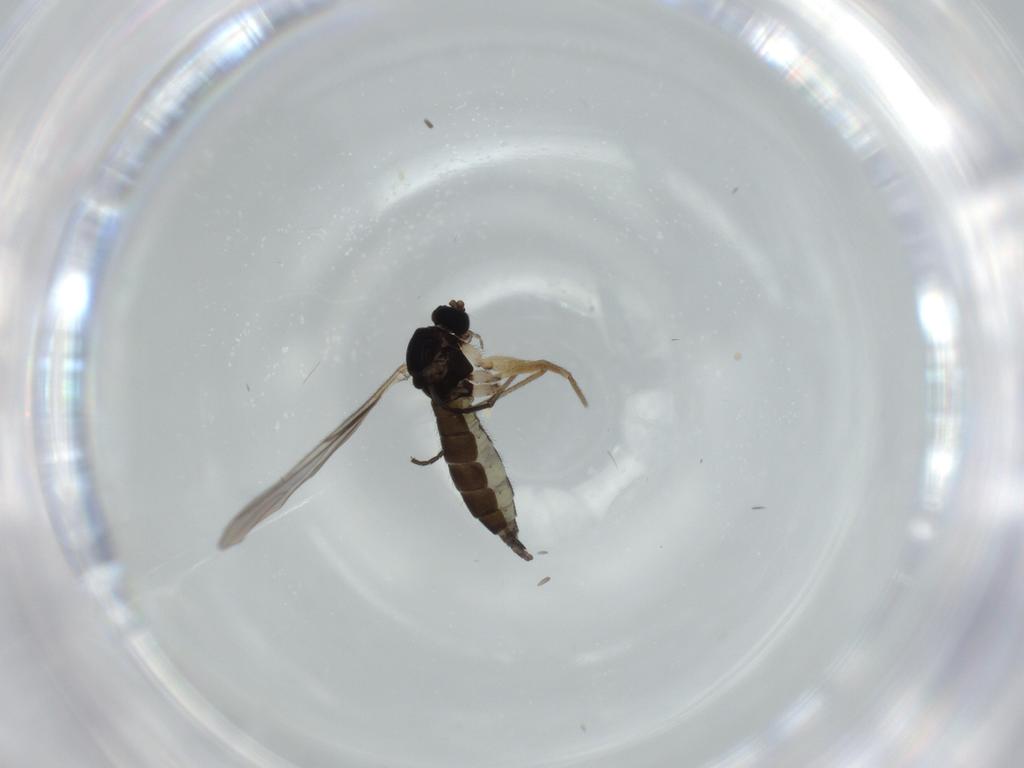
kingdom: Animalia
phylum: Arthropoda
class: Insecta
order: Diptera
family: Sciaridae
